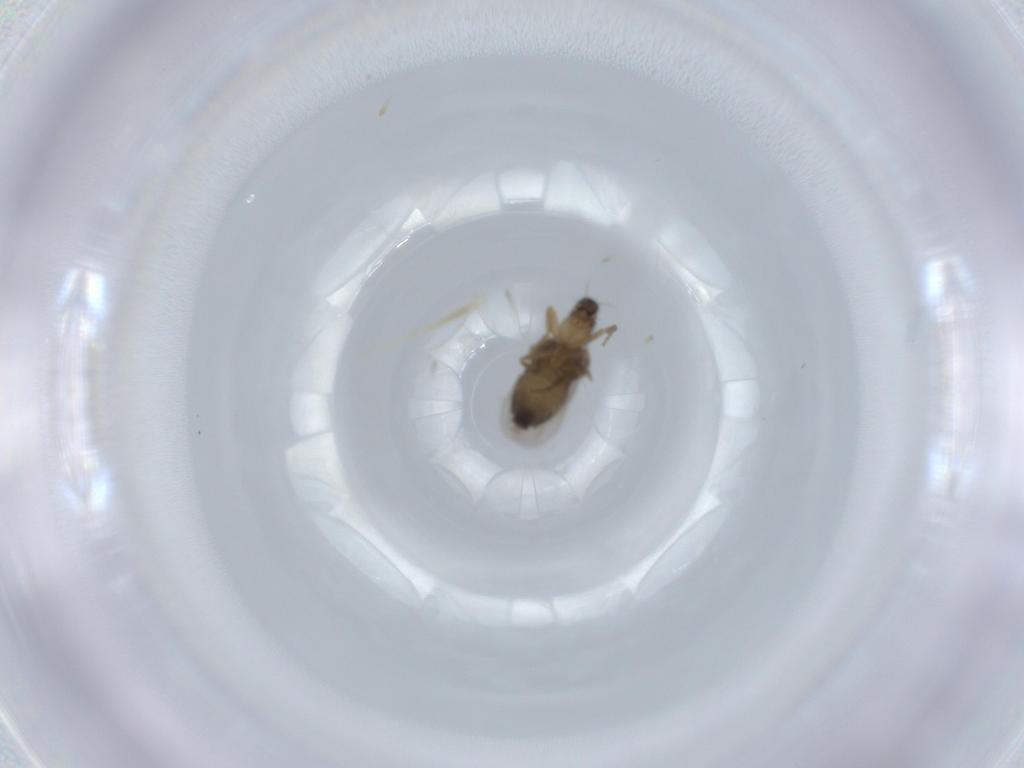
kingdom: Animalia
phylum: Arthropoda
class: Insecta
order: Diptera
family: Phoridae
